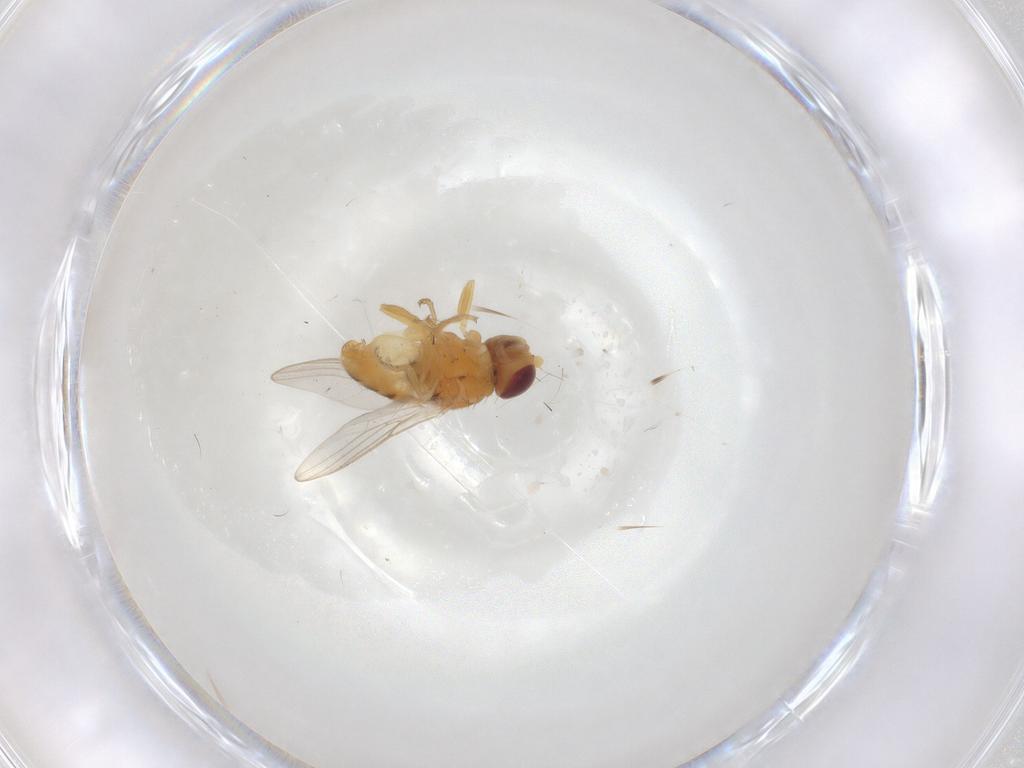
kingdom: Animalia
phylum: Arthropoda
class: Insecta
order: Diptera
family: Chloropidae
